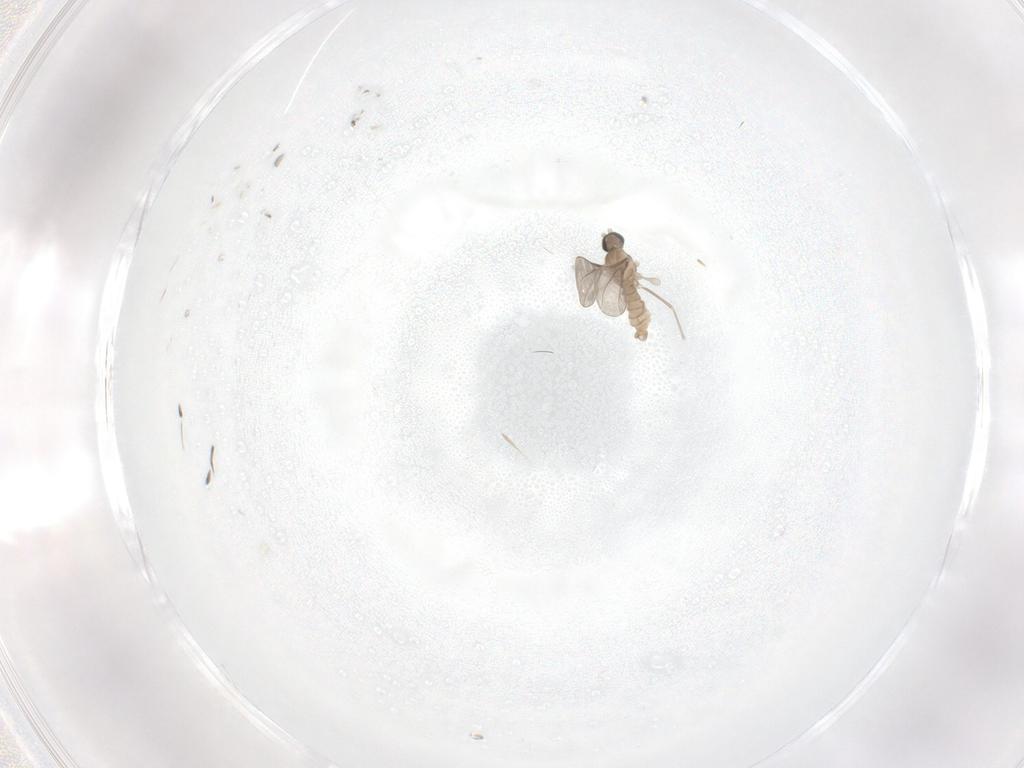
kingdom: Animalia
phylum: Arthropoda
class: Insecta
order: Diptera
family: Cecidomyiidae
